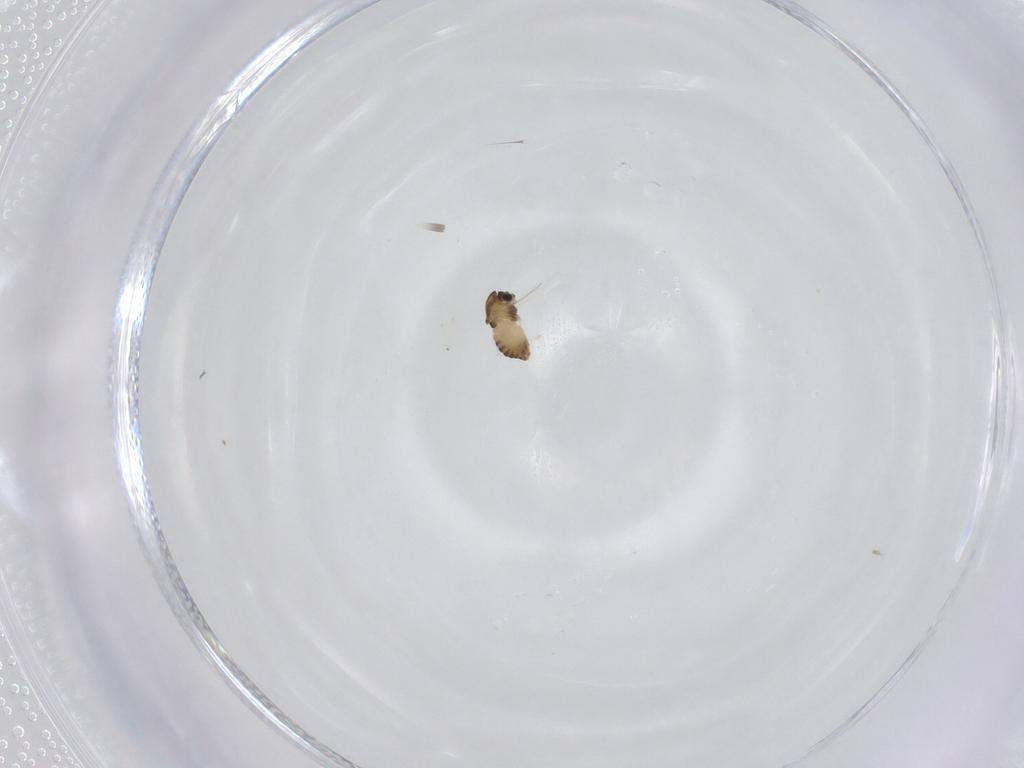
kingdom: Animalia
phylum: Arthropoda
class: Insecta
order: Diptera
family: Chironomidae
